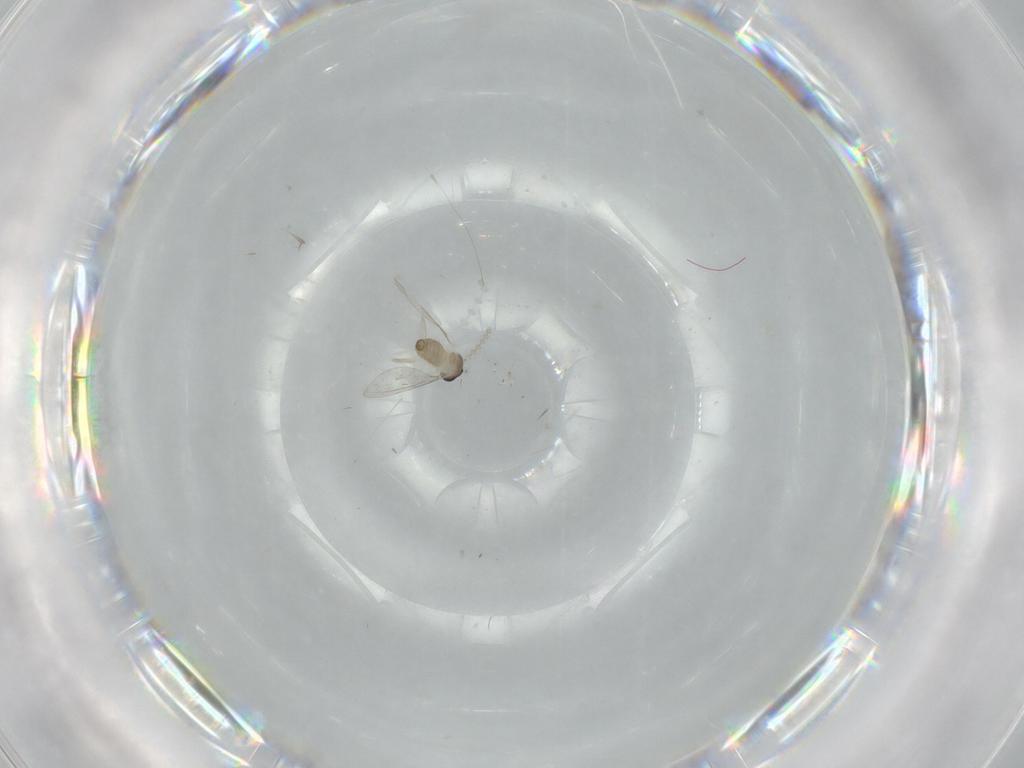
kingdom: Animalia
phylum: Arthropoda
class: Insecta
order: Diptera
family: Cecidomyiidae
